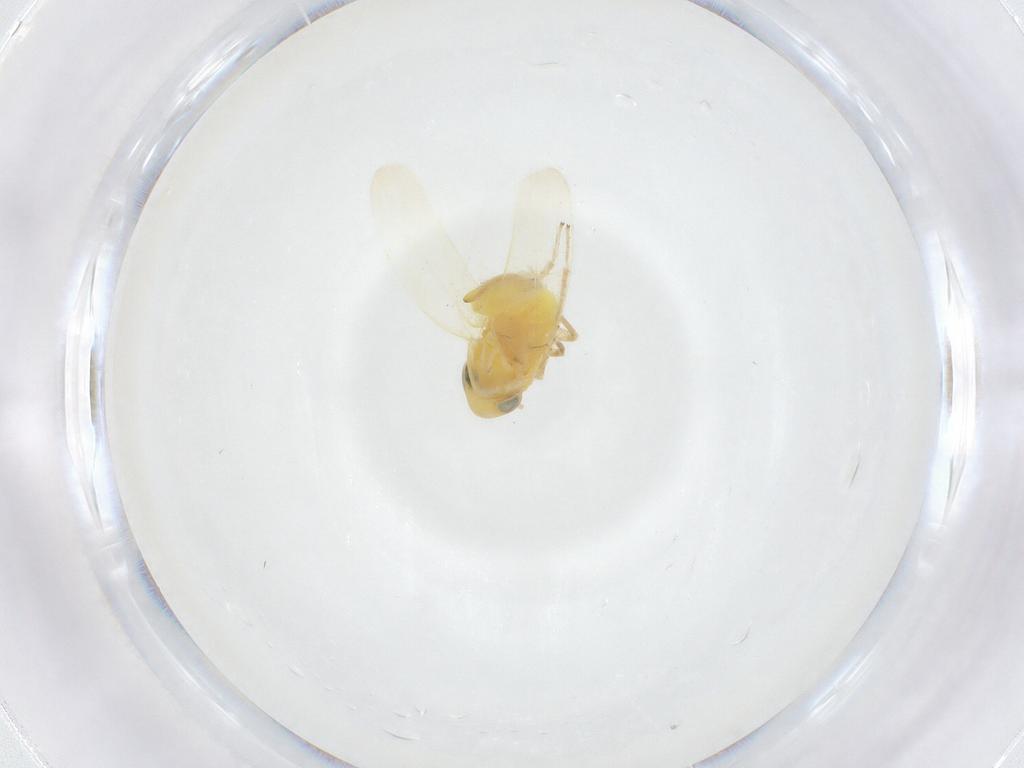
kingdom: Animalia
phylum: Arthropoda
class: Insecta
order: Hemiptera
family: Cicadellidae
